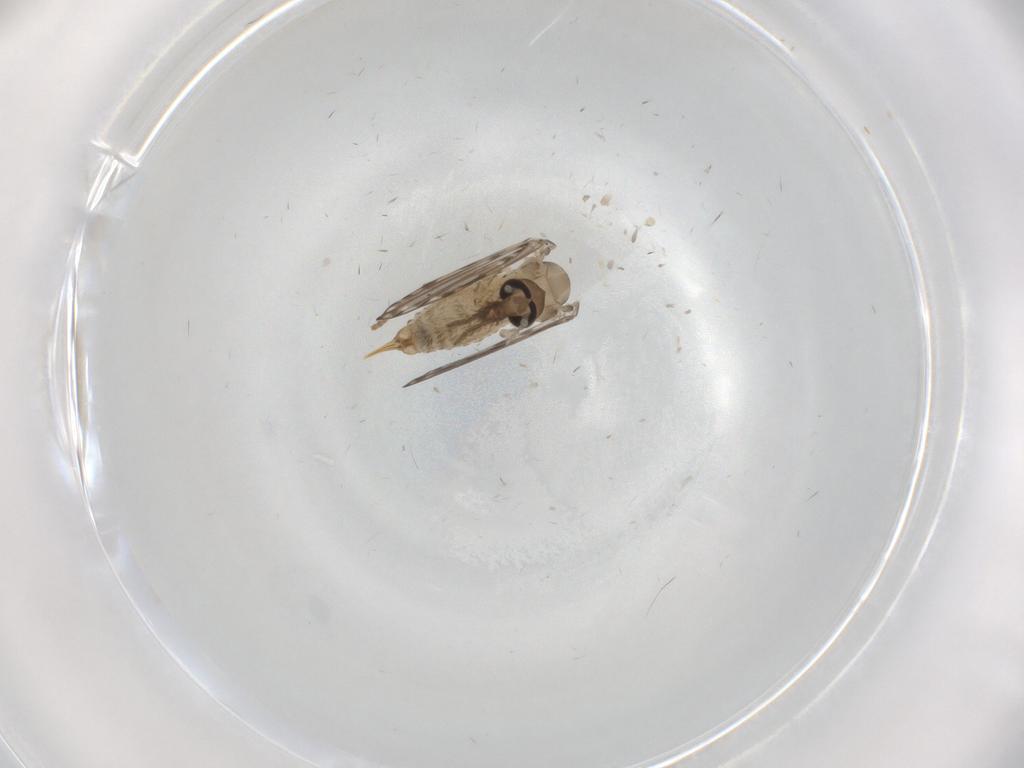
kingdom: Animalia
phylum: Arthropoda
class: Insecta
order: Diptera
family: Psychodidae
